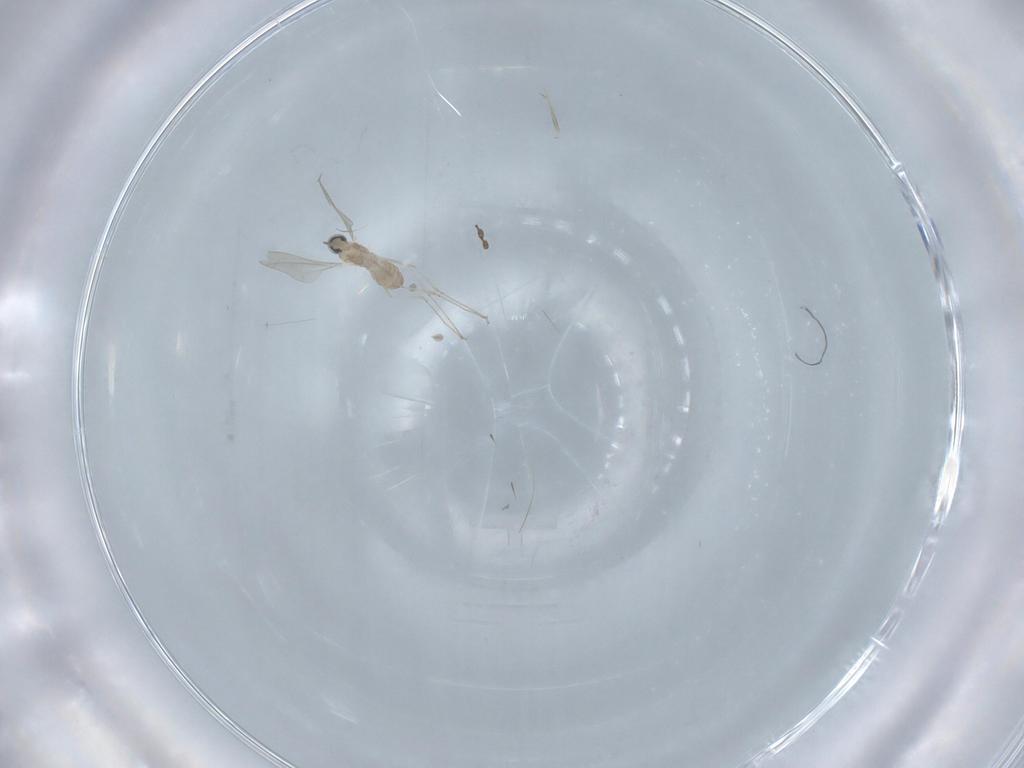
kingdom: Animalia
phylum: Arthropoda
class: Insecta
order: Diptera
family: Cecidomyiidae
